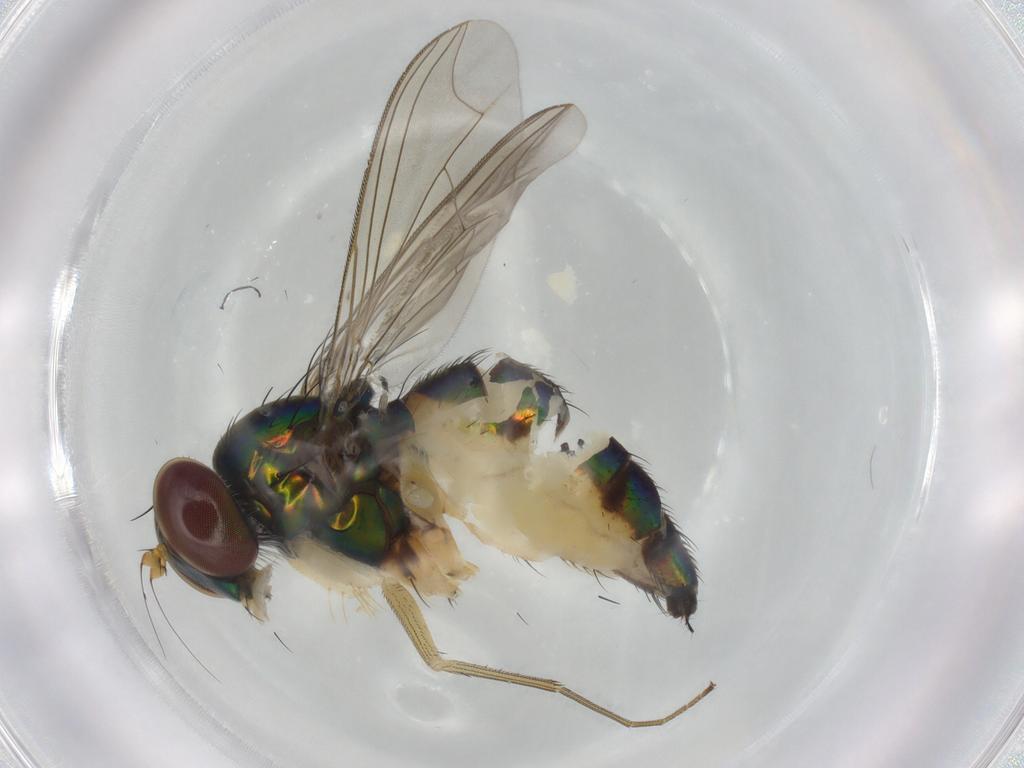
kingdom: Animalia
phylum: Arthropoda
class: Insecta
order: Diptera
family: Dolichopodidae
